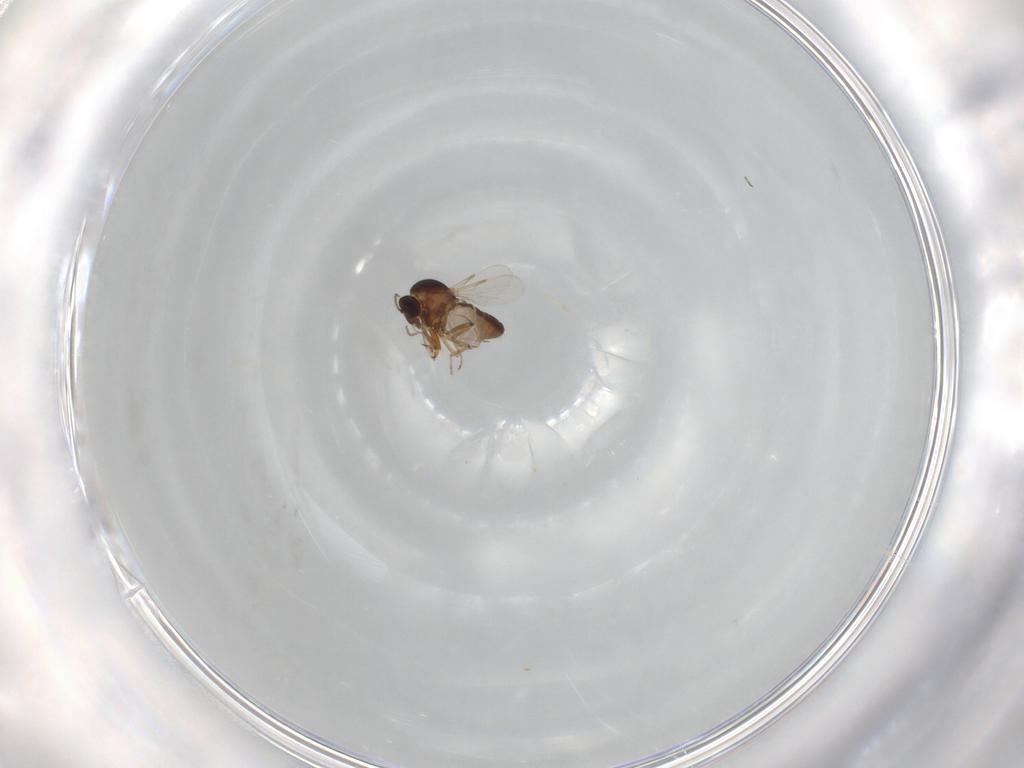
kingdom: Animalia
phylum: Arthropoda
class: Insecta
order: Diptera
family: Ceratopogonidae
